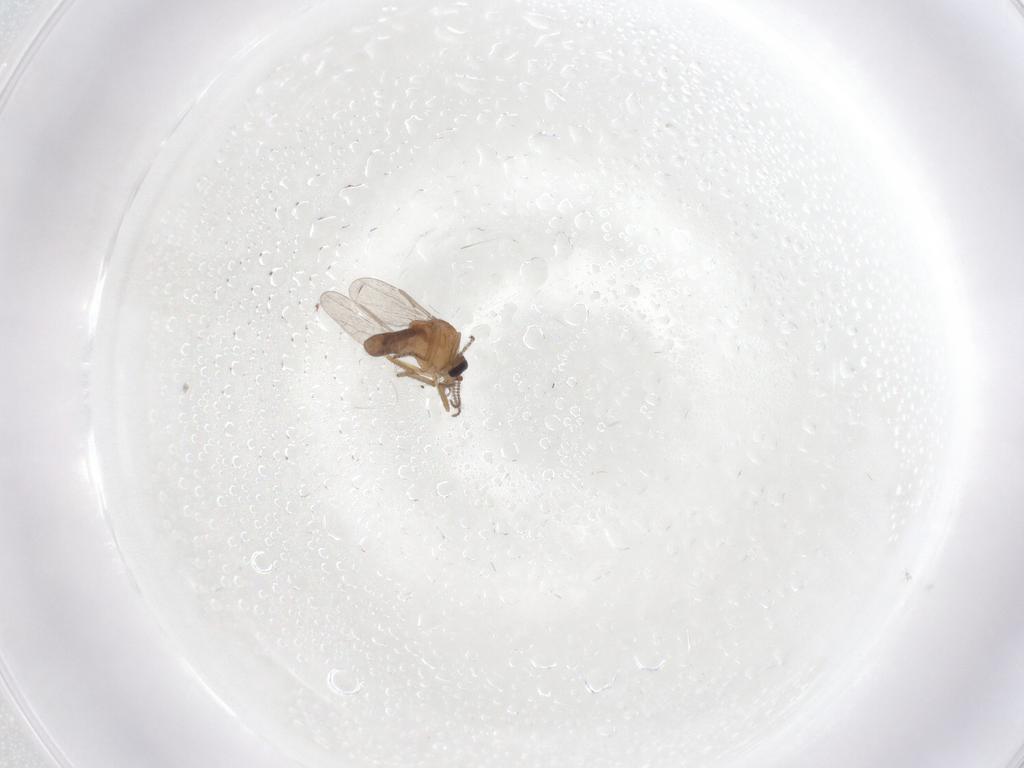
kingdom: Animalia
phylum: Arthropoda
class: Insecta
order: Diptera
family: Ceratopogonidae
